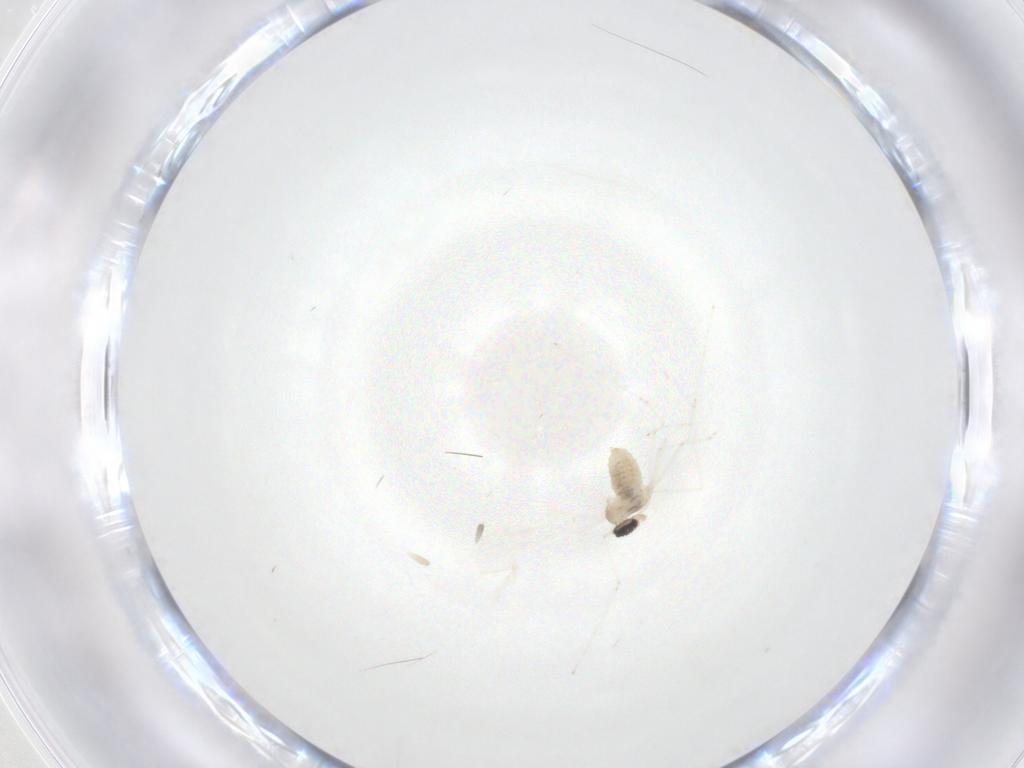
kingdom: Animalia
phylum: Arthropoda
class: Insecta
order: Diptera
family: Cecidomyiidae
